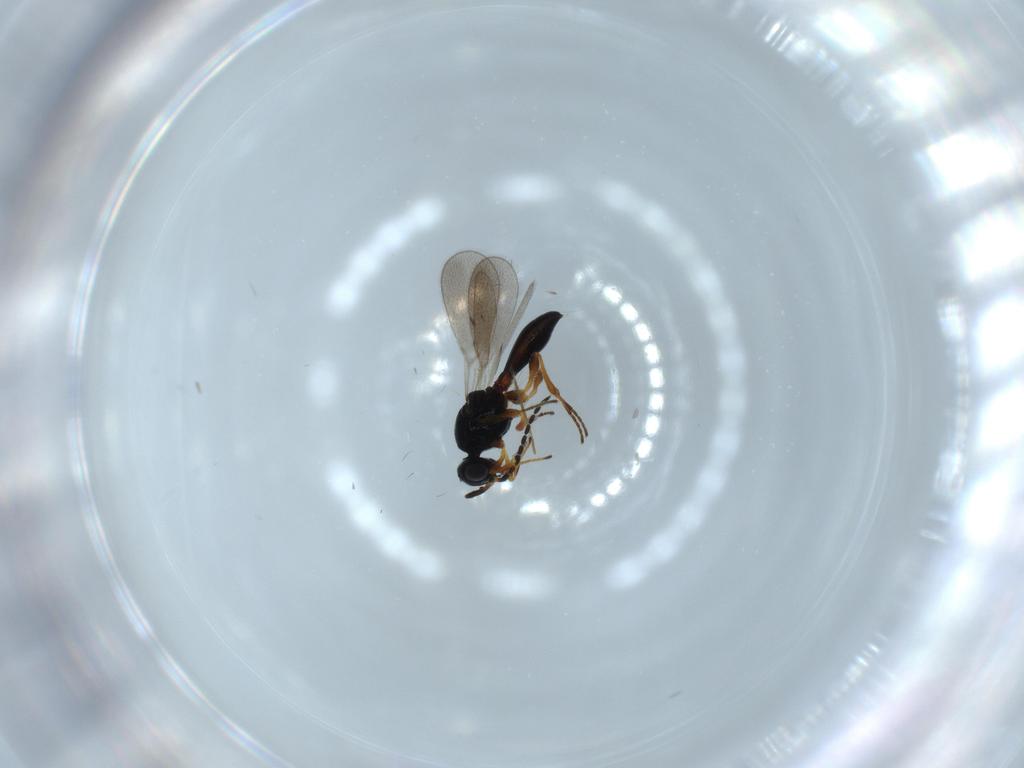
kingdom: Animalia
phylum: Arthropoda
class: Insecta
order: Hymenoptera
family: Platygastridae
